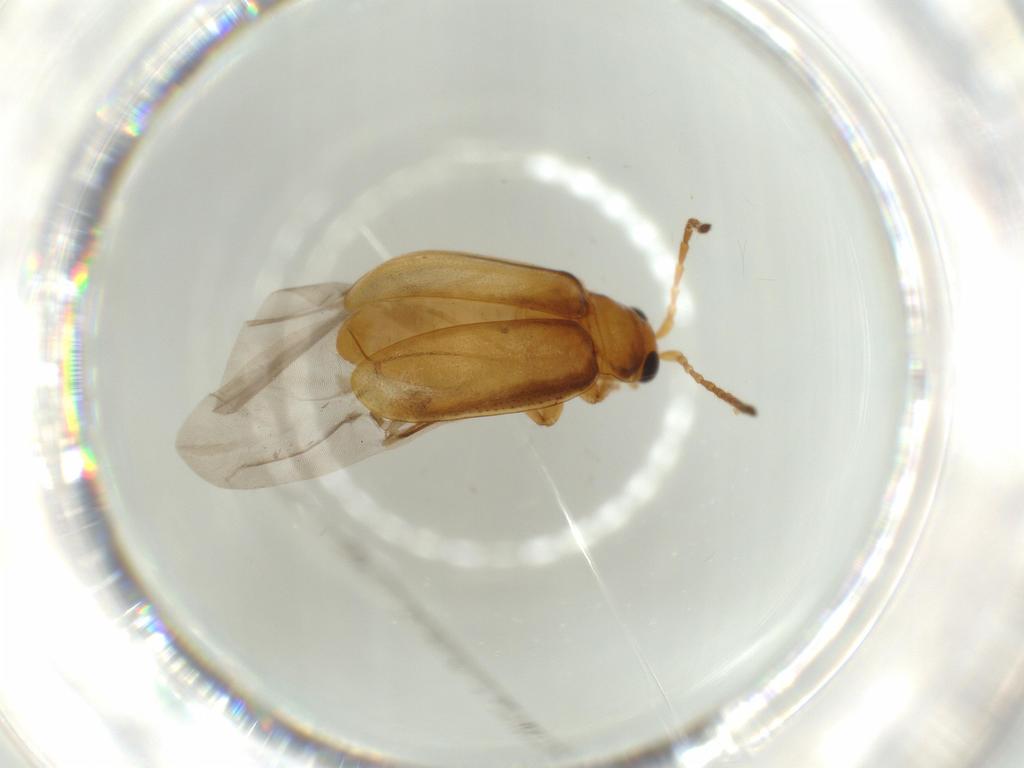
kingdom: Animalia
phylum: Arthropoda
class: Insecta
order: Coleoptera
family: Chrysomelidae
